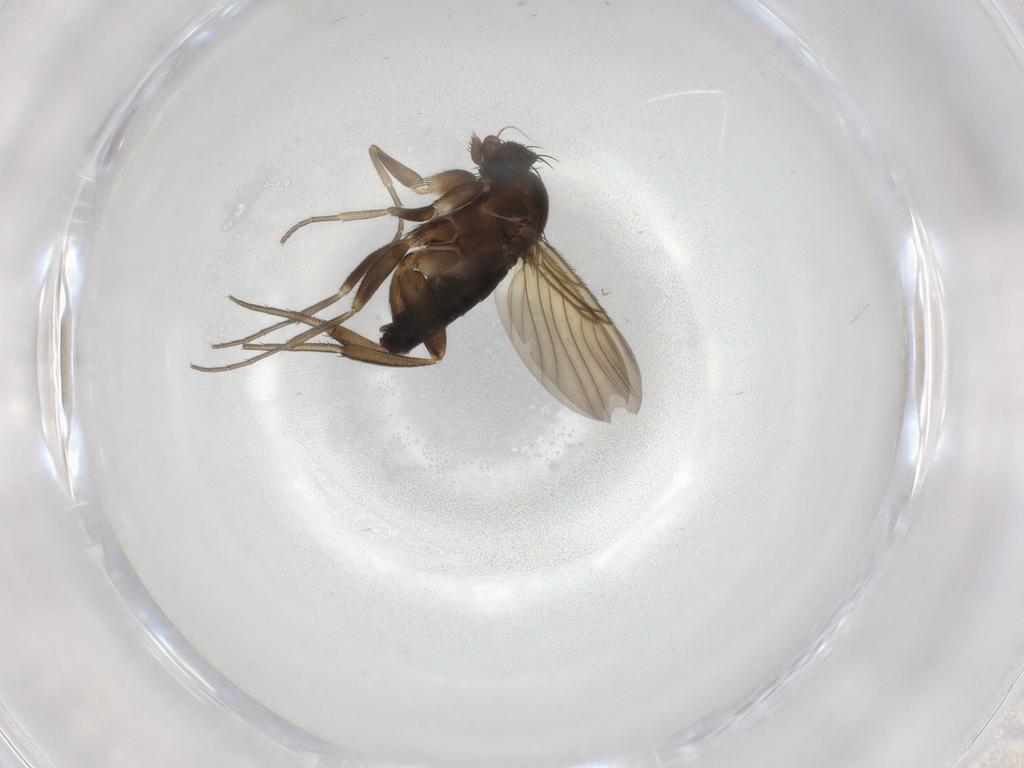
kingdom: Animalia
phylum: Arthropoda
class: Insecta
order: Diptera
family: Phoridae
